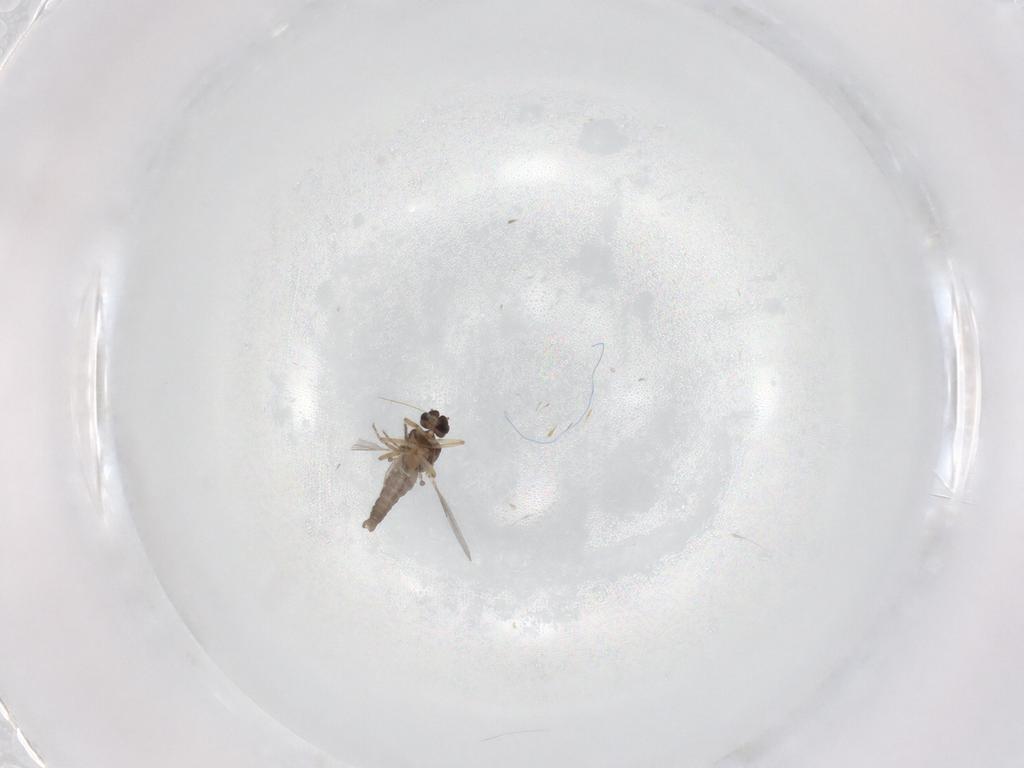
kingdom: Animalia
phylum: Arthropoda
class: Insecta
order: Diptera
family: Ceratopogonidae
